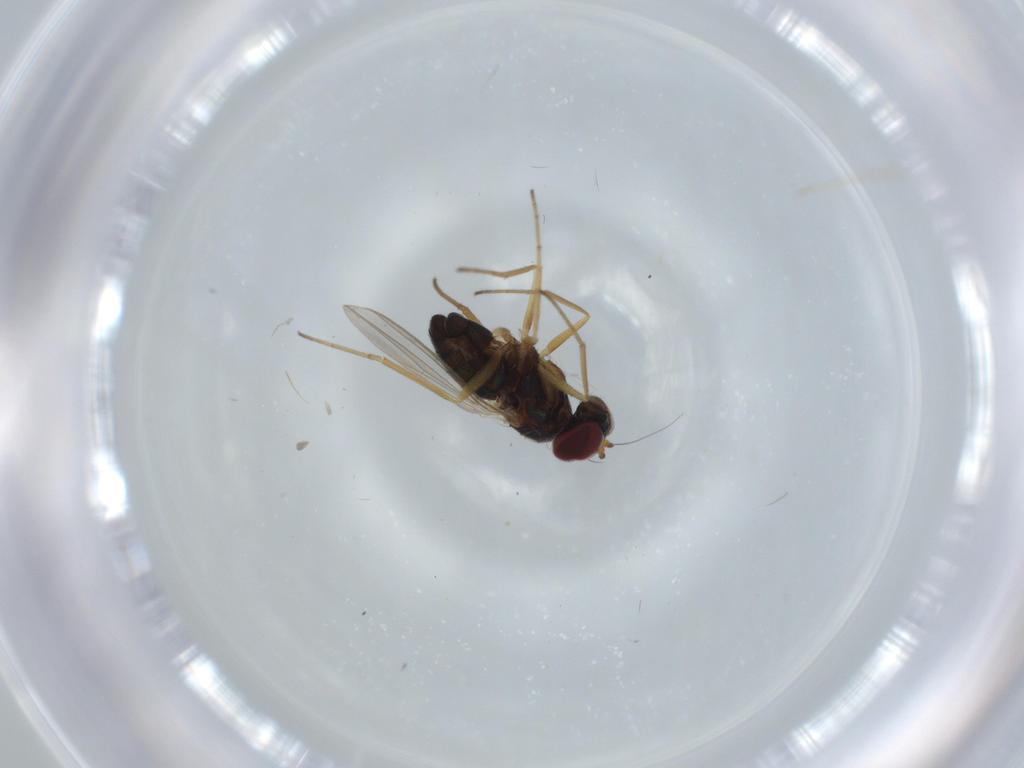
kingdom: Animalia
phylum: Arthropoda
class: Insecta
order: Diptera
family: Dolichopodidae
